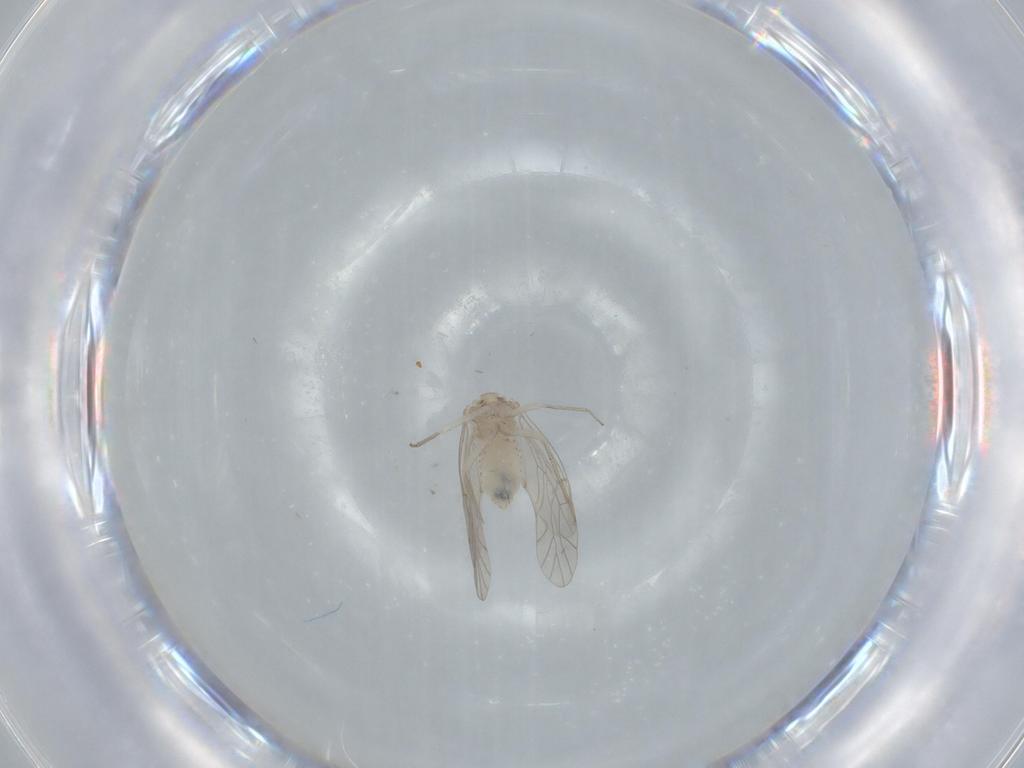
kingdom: Animalia
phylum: Arthropoda
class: Insecta
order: Psocodea
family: Lachesillidae
